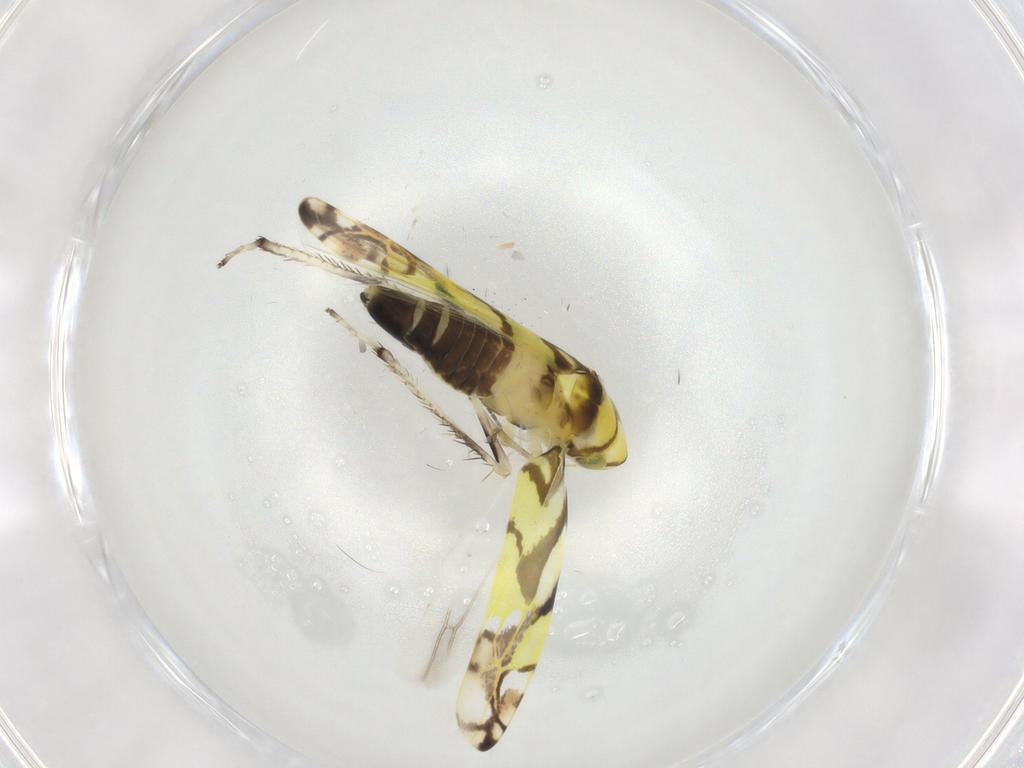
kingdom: Animalia
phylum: Arthropoda
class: Insecta
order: Hemiptera
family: Cicadellidae
